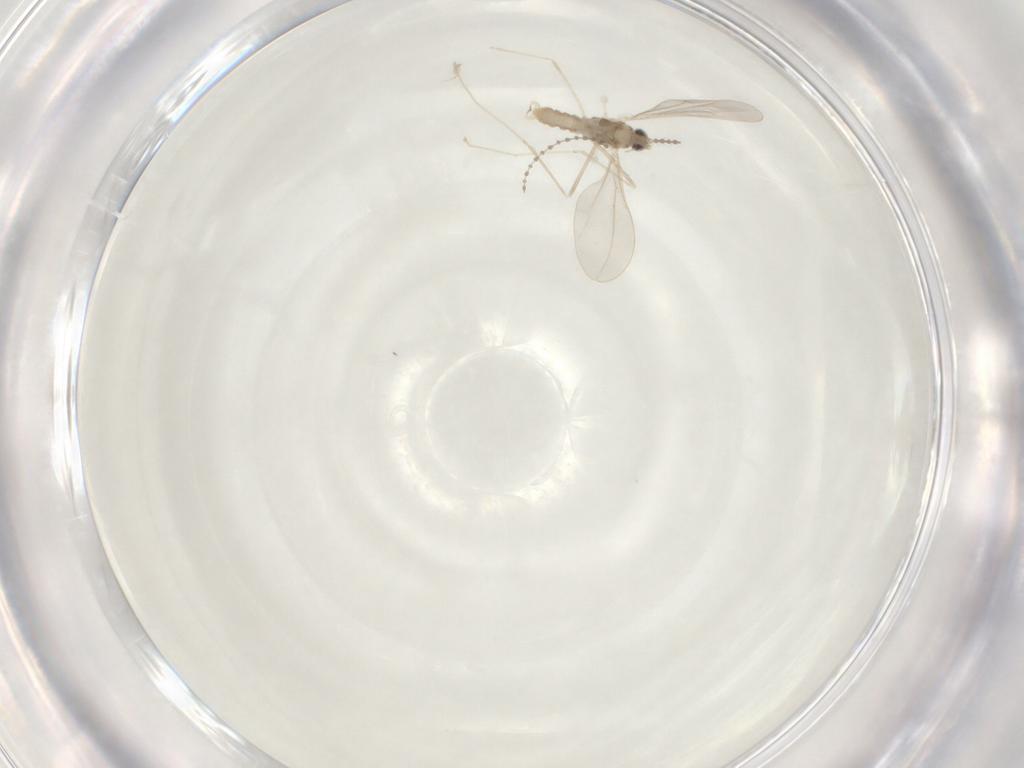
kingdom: Animalia
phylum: Arthropoda
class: Insecta
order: Diptera
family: Cecidomyiidae
